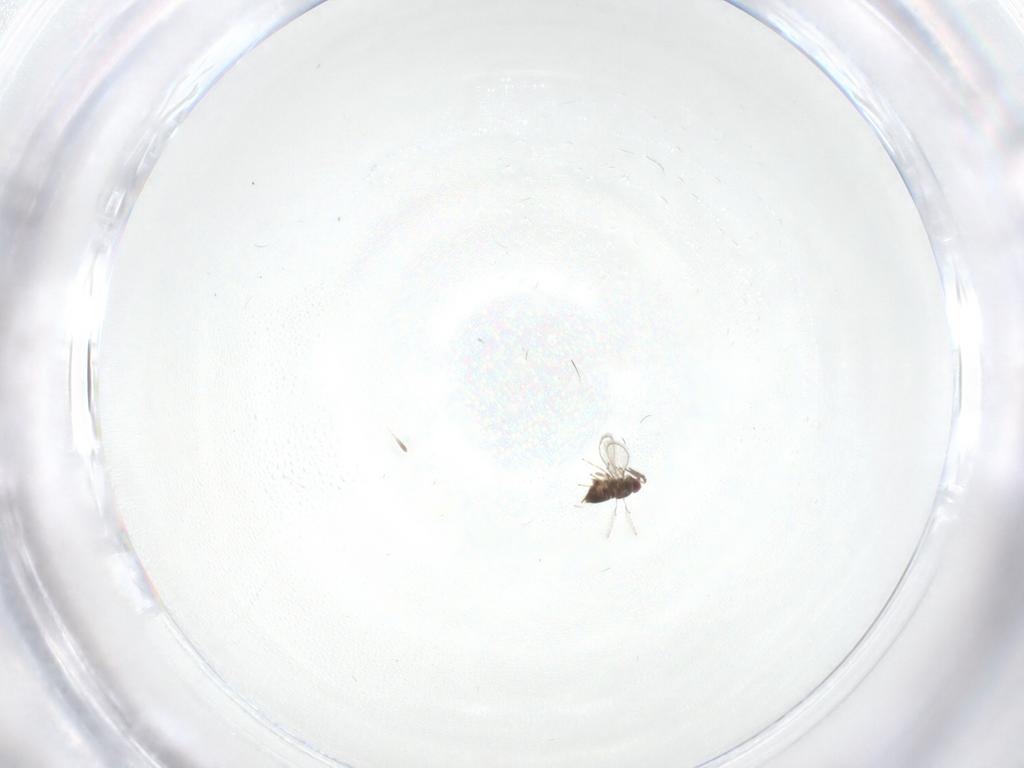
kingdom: Animalia
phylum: Arthropoda
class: Insecta
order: Hymenoptera
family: Trichogrammatidae
